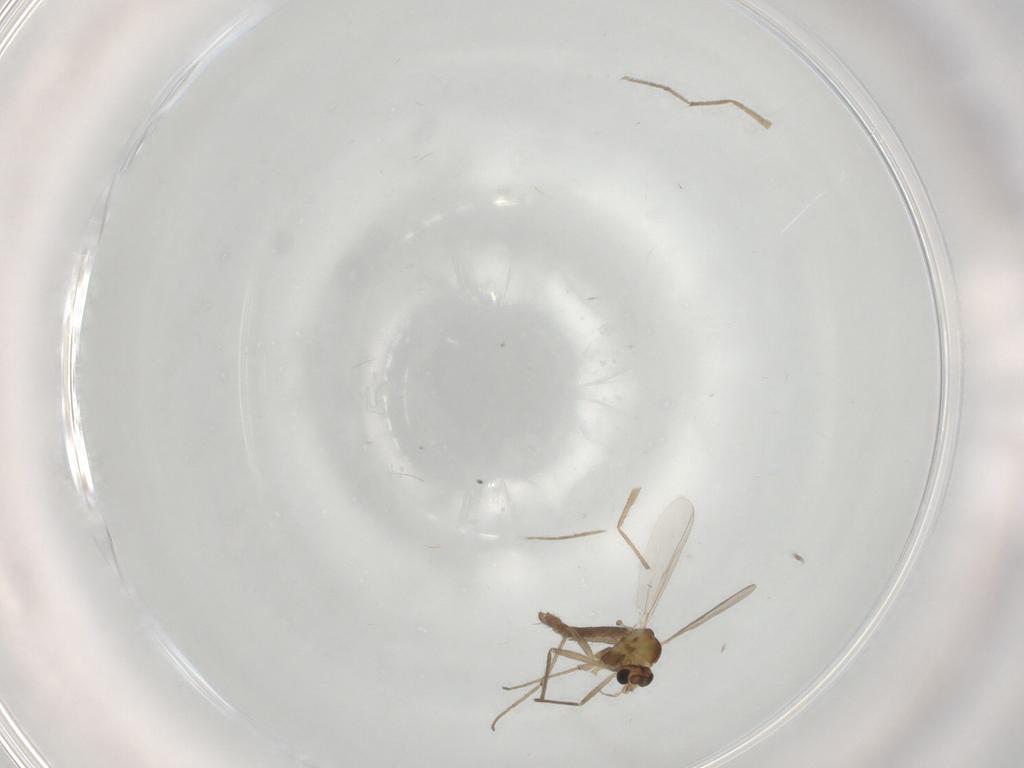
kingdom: Animalia
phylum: Arthropoda
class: Insecta
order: Diptera
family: Chironomidae
